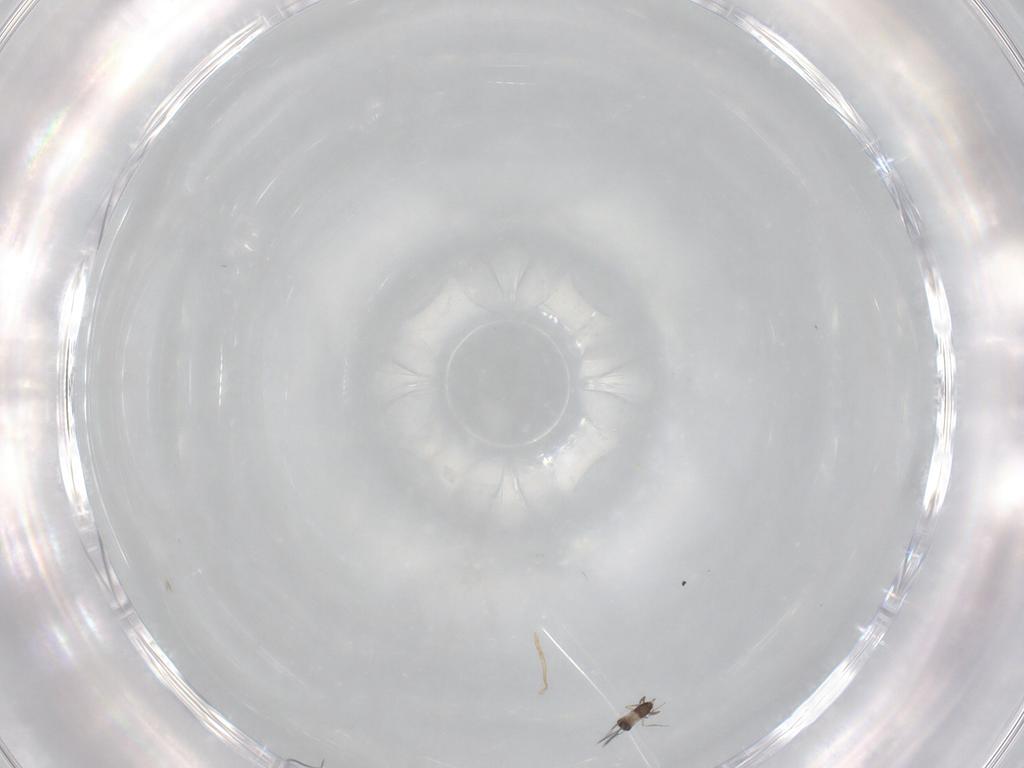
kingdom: Animalia
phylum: Arthropoda
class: Insecta
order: Hymenoptera
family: Mymaridae
